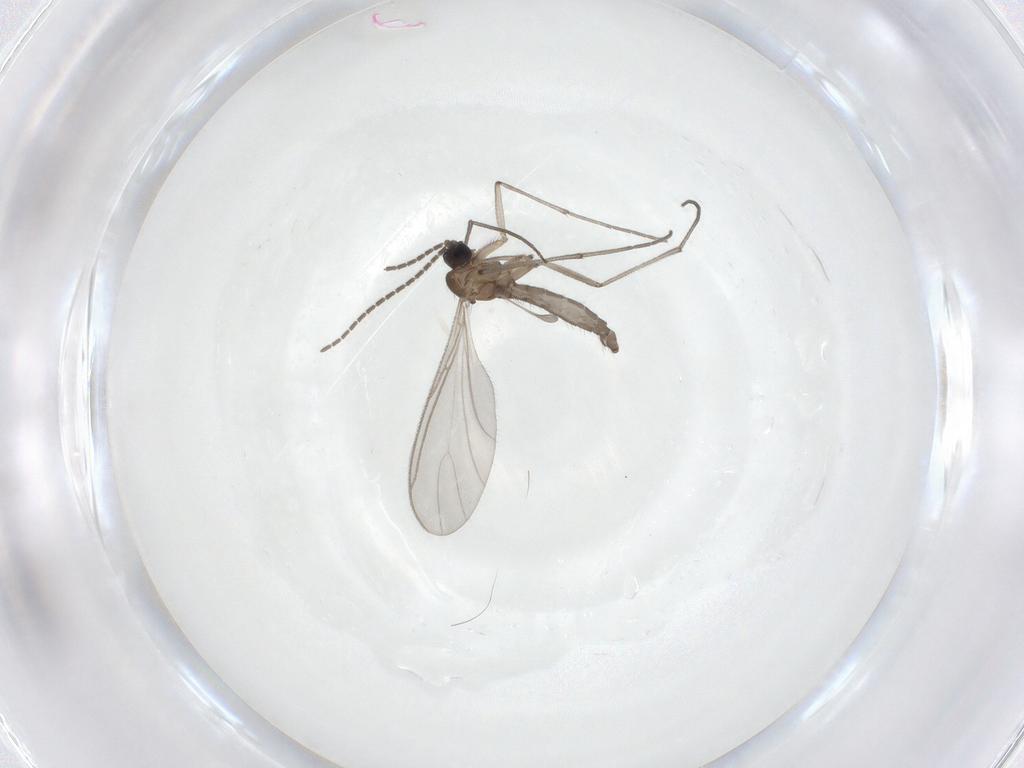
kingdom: Animalia
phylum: Arthropoda
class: Insecta
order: Diptera
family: Sciaridae
